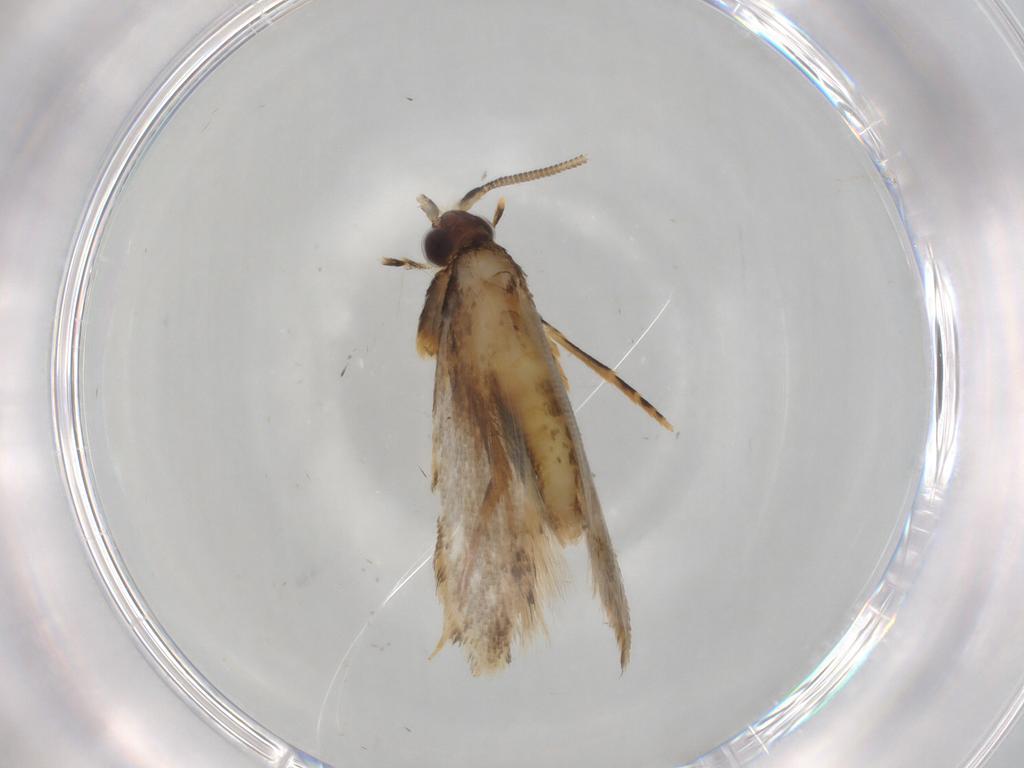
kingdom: Animalia
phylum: Arthropoda
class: Insecta
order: Lepidoptera
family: Tineidae
